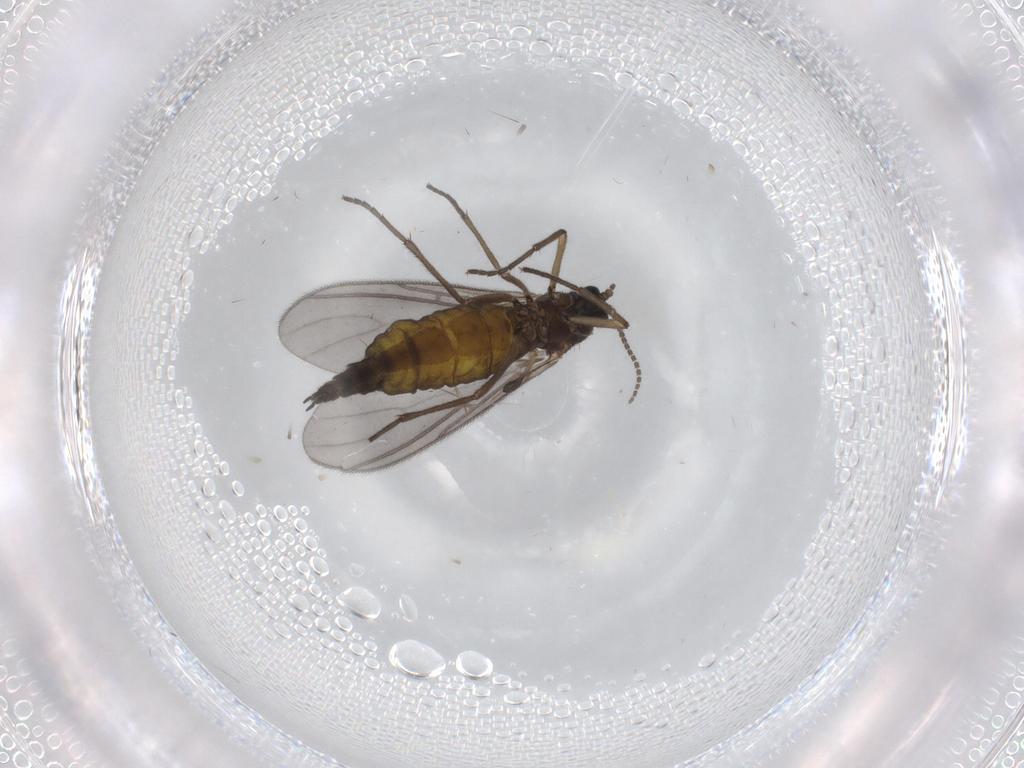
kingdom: Animalia
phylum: Arthropoda
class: Insecta
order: Diptera
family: Sciaridae
